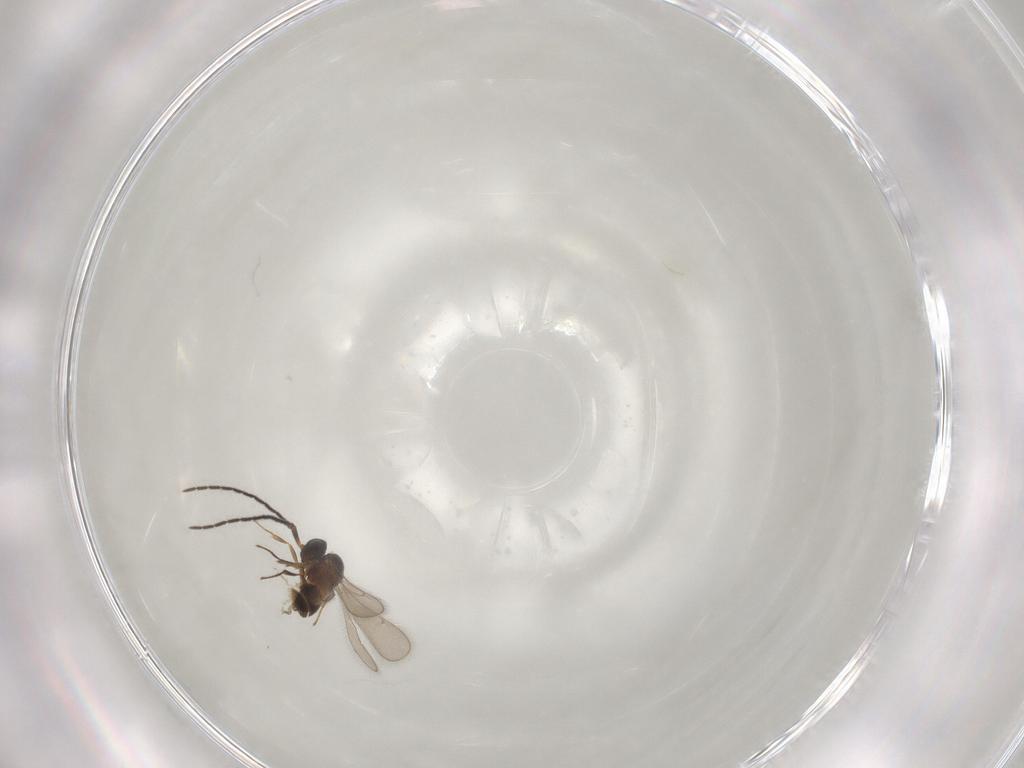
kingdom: Animalia
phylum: Arthropoda
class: Insecta
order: Hymenoptera
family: Scelionidae
